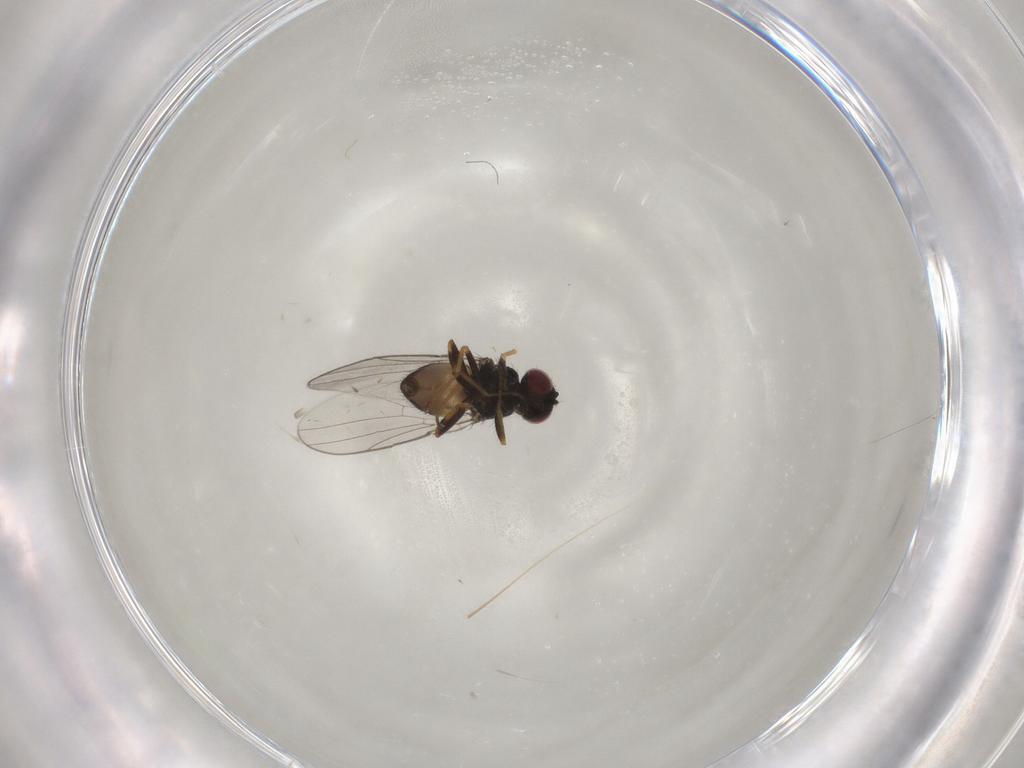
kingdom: Animalia
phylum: Arthropoda
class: Insecta
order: Diptera
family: Chloropidae
